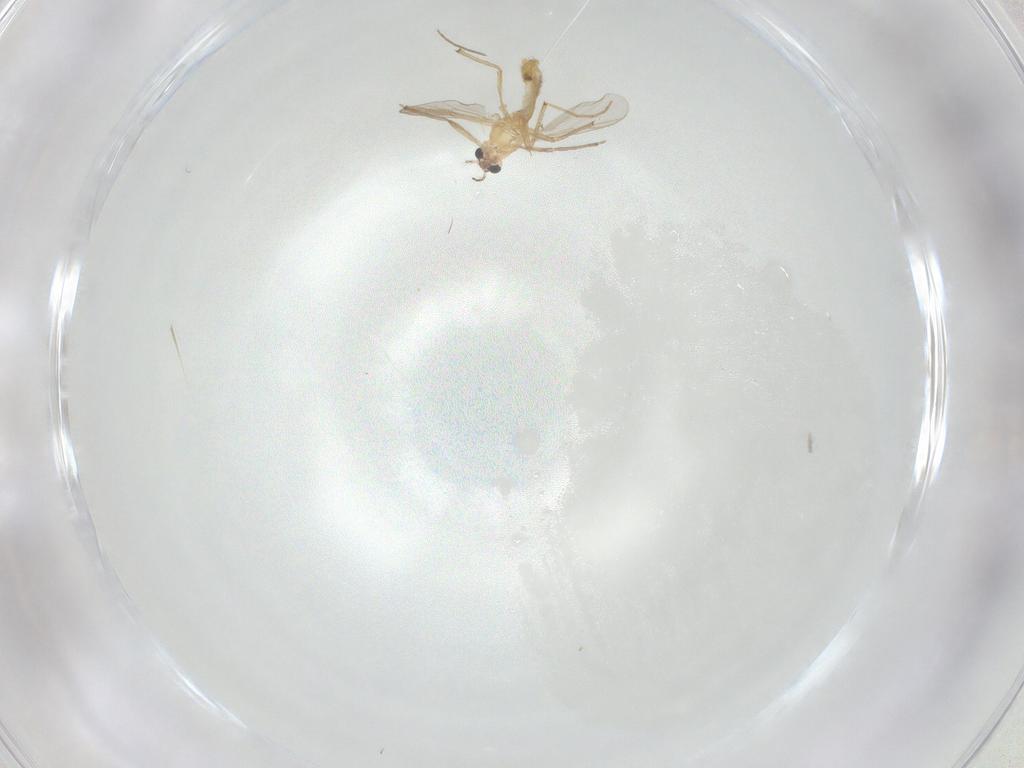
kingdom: Animalia
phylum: Arthropoda
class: Insecta
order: Diptera
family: Chironomidae
